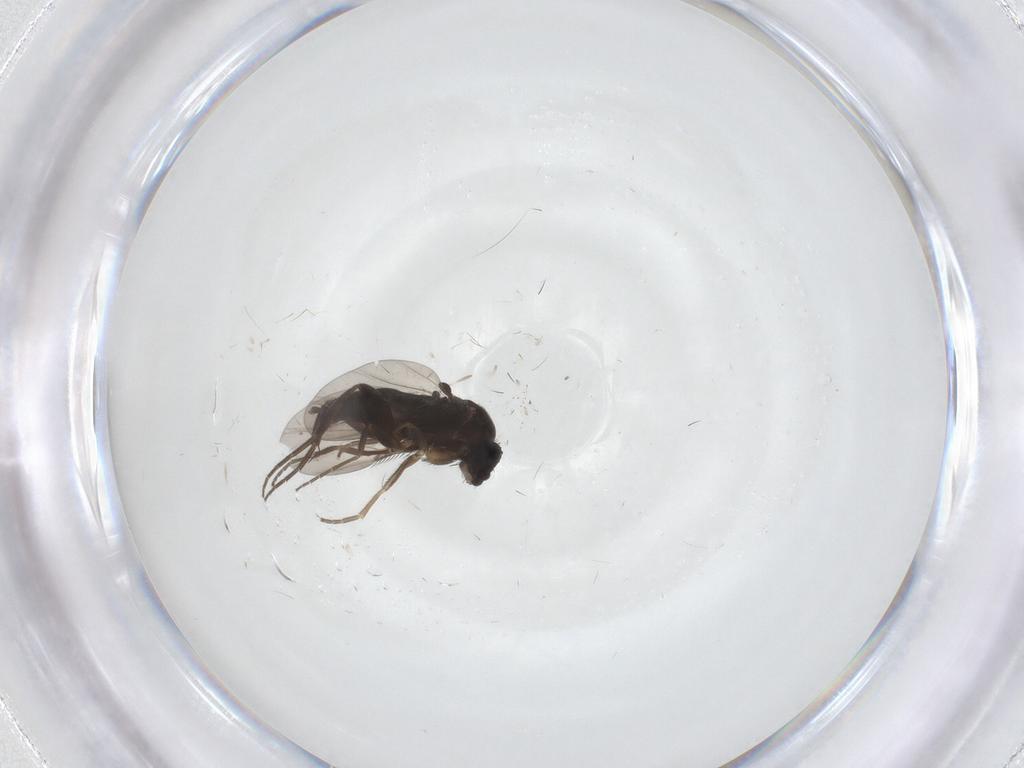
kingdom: Animalia
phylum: Arthropoda
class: Insecta
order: Diptera
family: Phoridae
